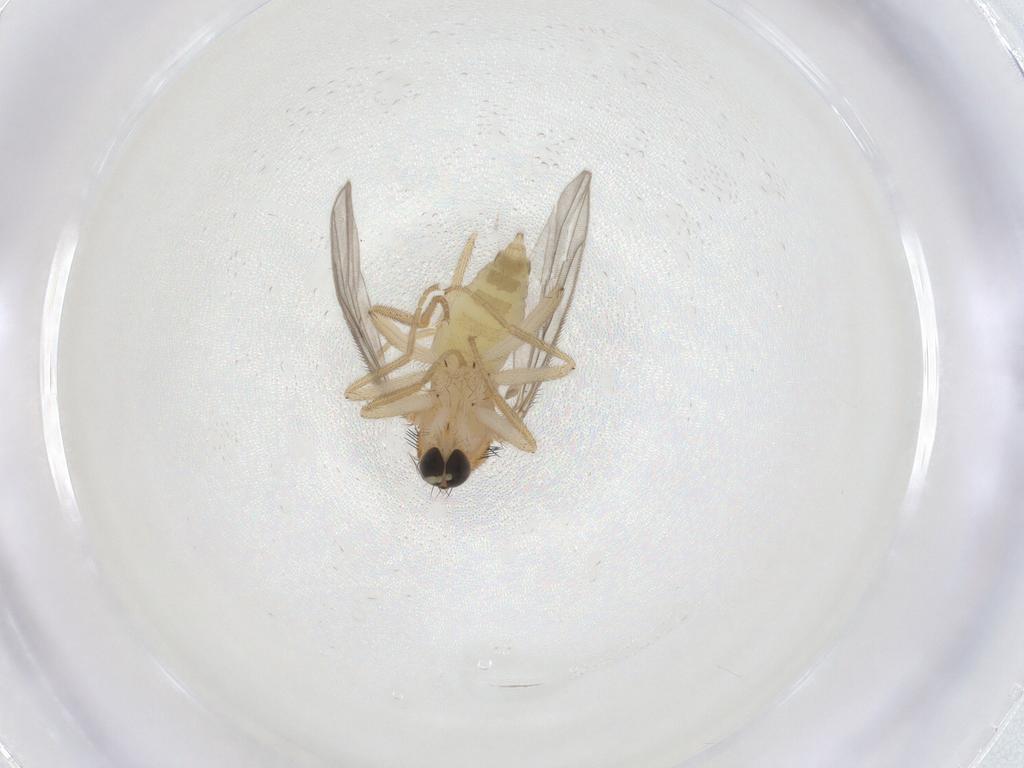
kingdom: Animalia
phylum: Arthropoda
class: Insecta
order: Diptera
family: Hybotidae
